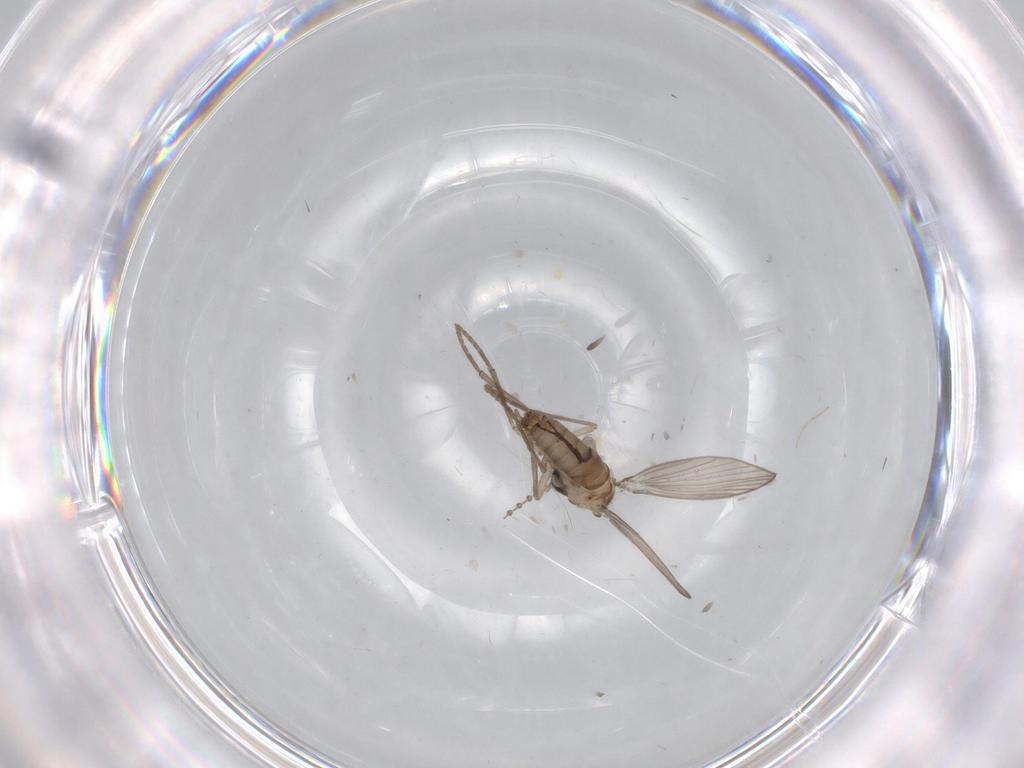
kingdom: Animalia
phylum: Arthropoda
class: Insecta
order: Diptera
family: Psychodidae
